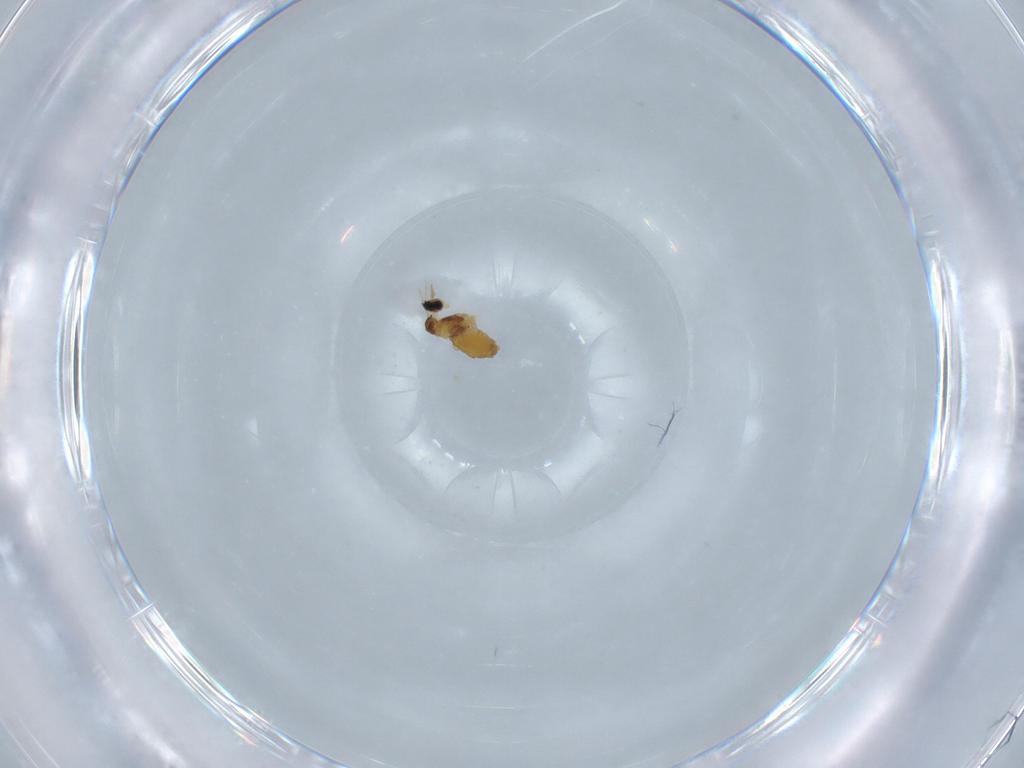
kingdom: Animalia
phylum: Arthropoda
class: Insecta
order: Diptera
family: Cecidomyiidae
